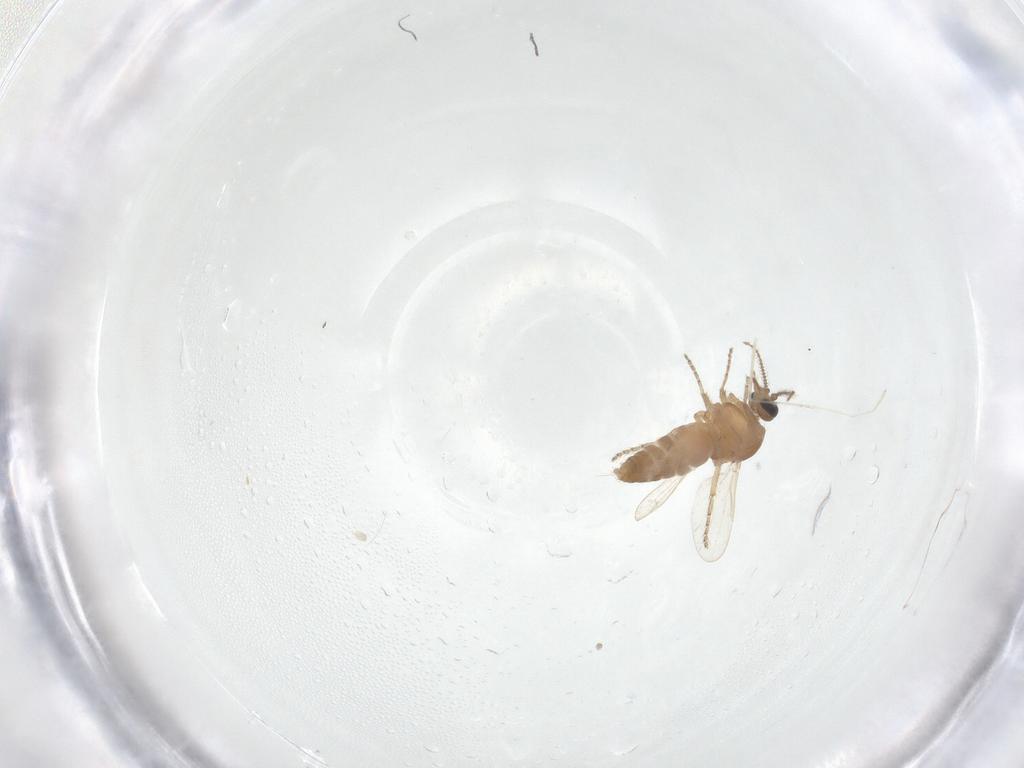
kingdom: Animalia
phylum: Arthropoda
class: Insecta
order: Diptera
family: Ceratopogonidae
